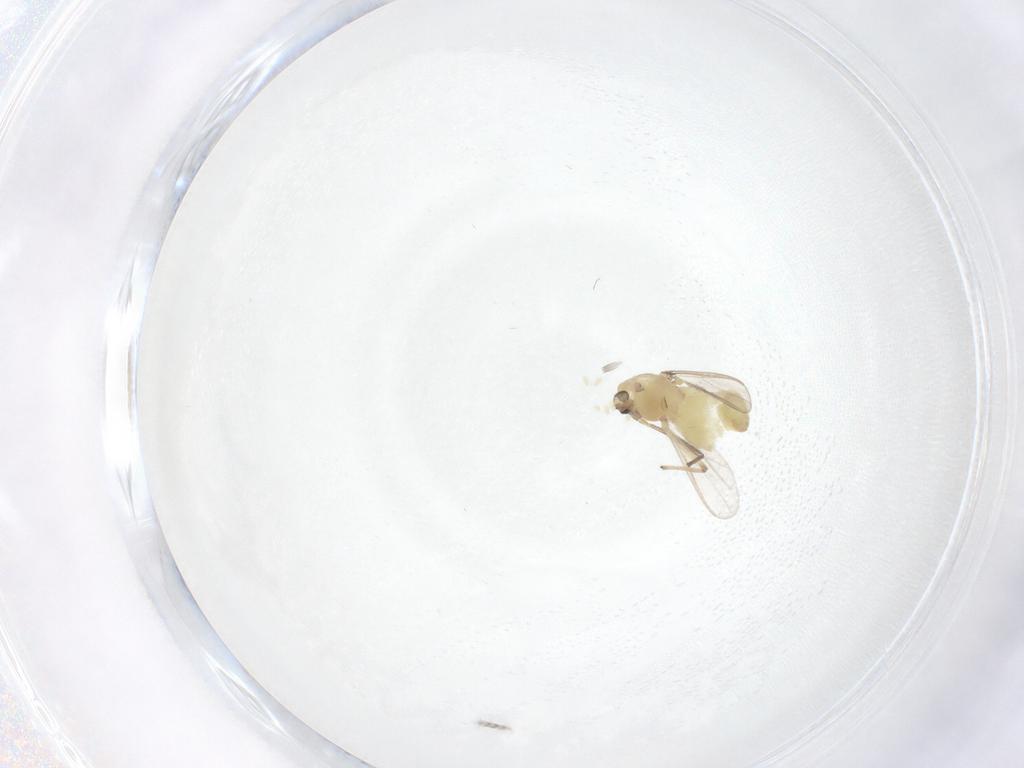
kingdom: Animalia
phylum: Arthropoda
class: Insecta
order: Diptera
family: Chironomidae
